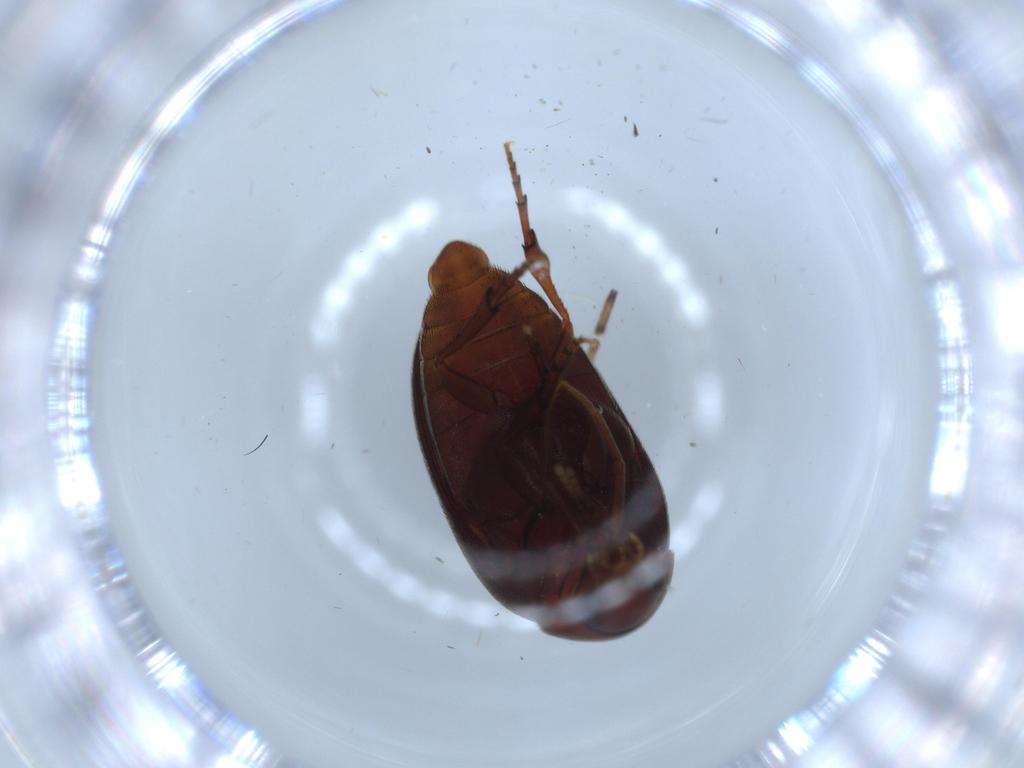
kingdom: Animalia
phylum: Arthropoda
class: Insecta
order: Coleoptera
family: Eucinetidae
